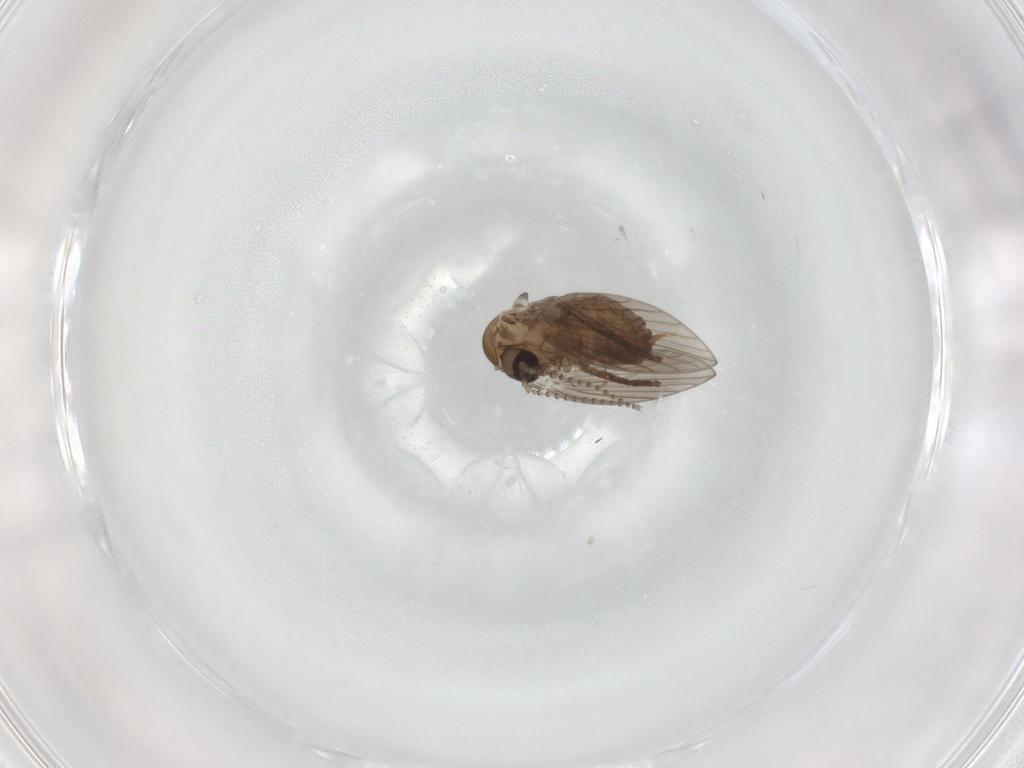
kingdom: Animalia
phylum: Arthropoda
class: Insecta
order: Diptera
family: Psychodidae
